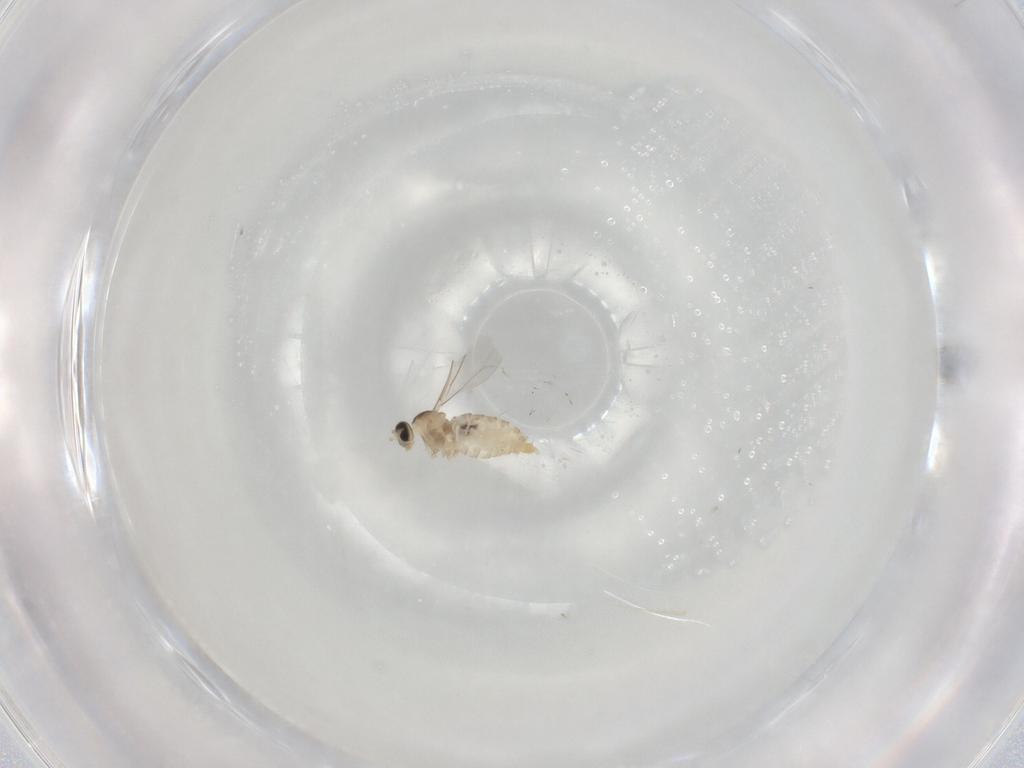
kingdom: Animalia
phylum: Arthropoda
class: Insecta
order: Diptera
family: Cecidomyiidae
